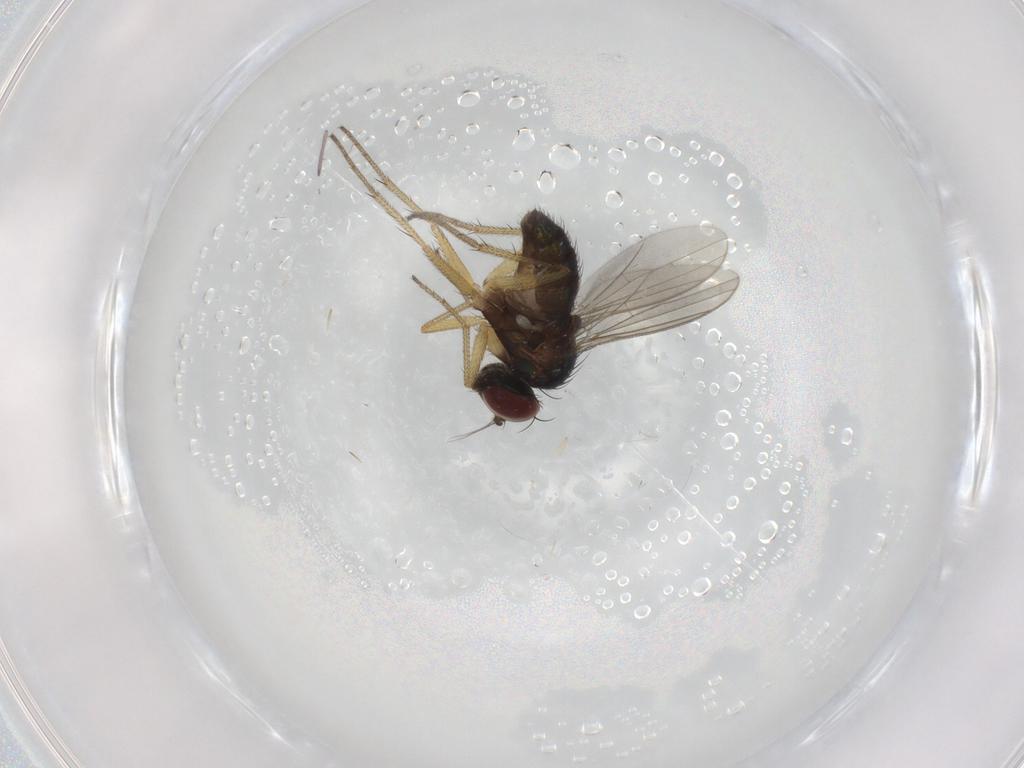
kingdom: Animalia
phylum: Arthropoda
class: Insecta
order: Diptera
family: Dolichopodidae
